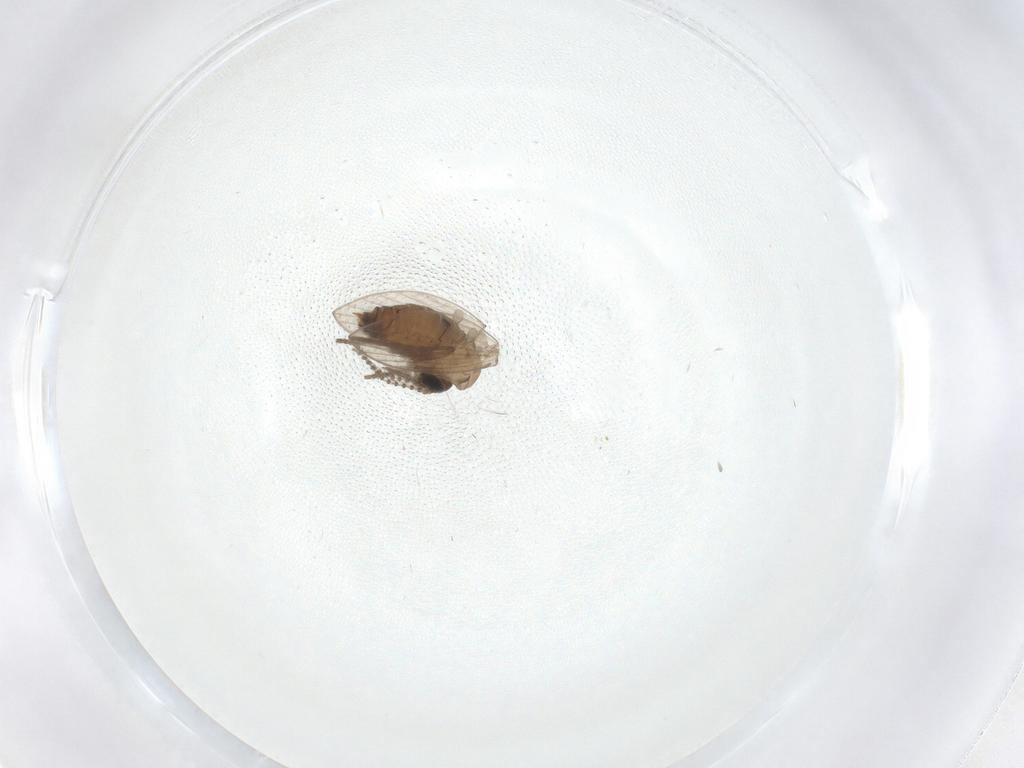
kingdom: Animalia
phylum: Arthropoda
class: Insecta
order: Diptera
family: Psychodidae
